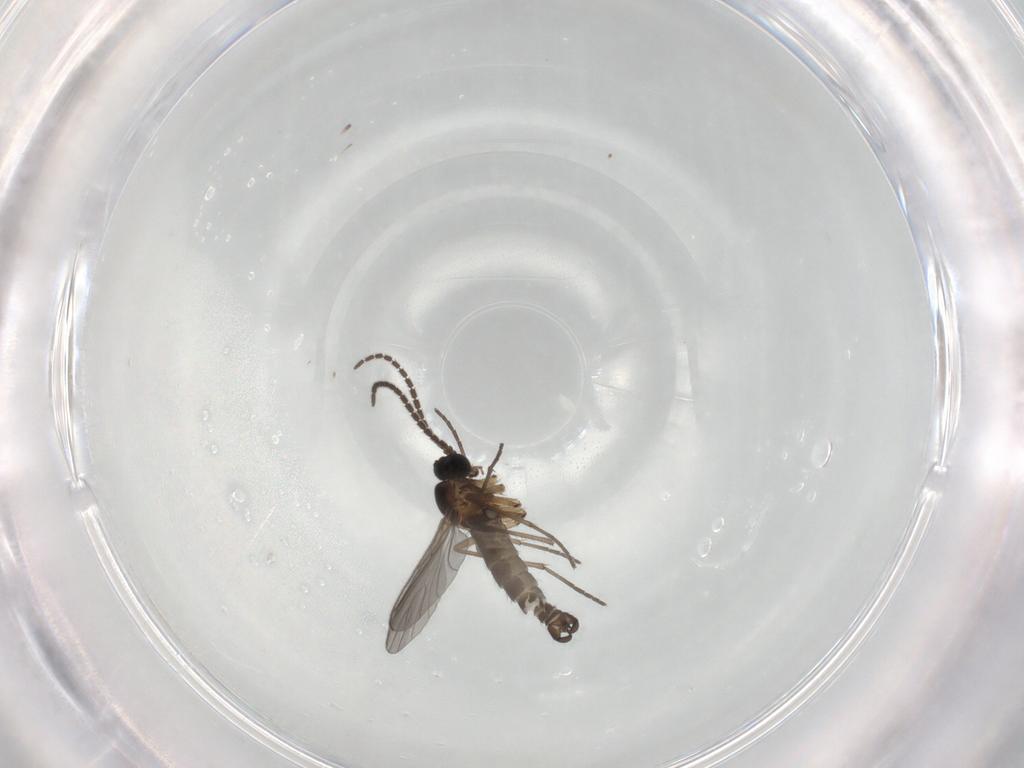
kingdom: Animalia
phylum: Arthropoda
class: Insecta
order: Diptera
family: Sciaridae
